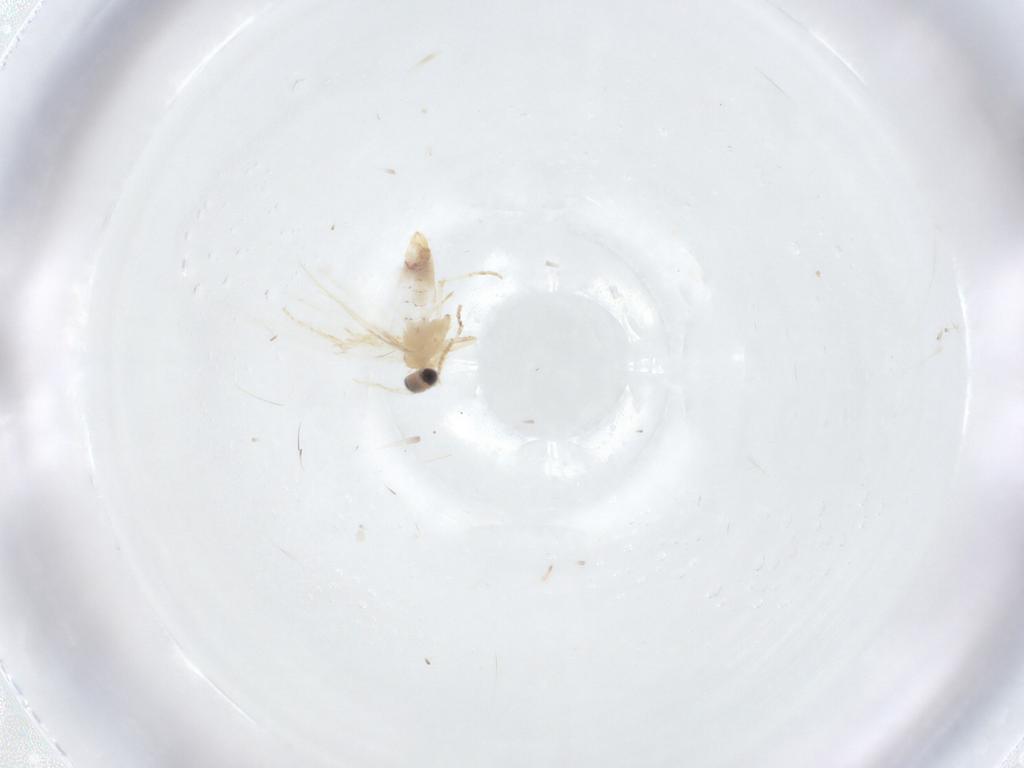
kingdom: Animalia
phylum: Arthropoda
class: Insecta
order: Lepidoptera
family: Nepticulidae
